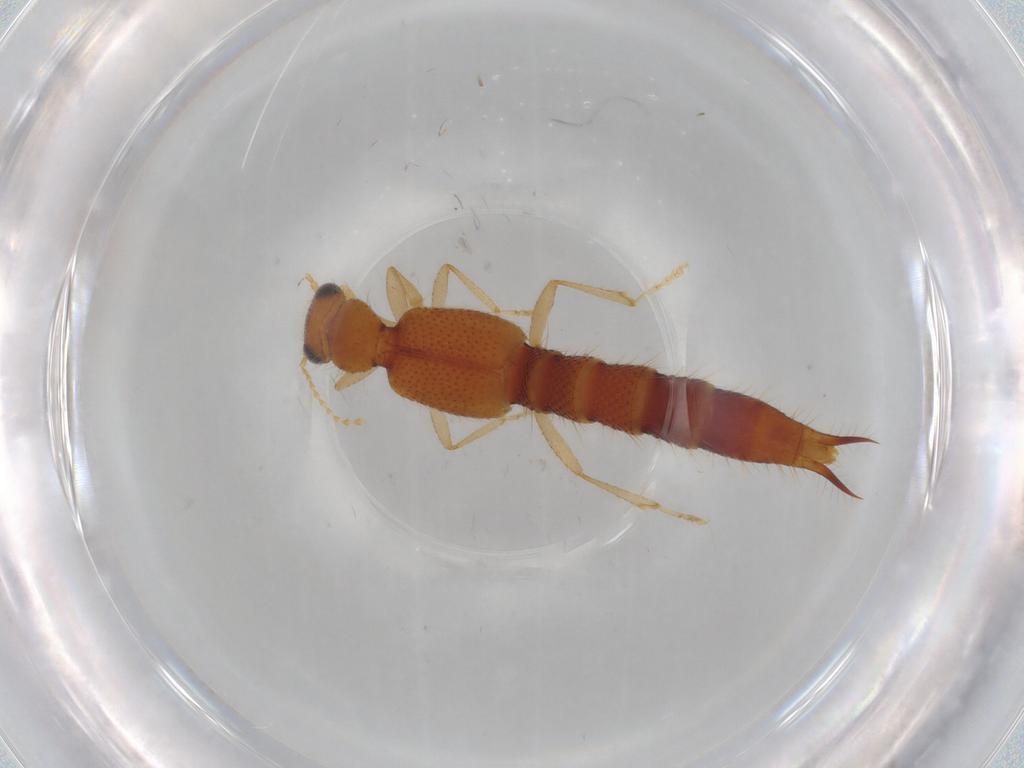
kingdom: Animalia
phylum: Arthropoda
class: Insecta
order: Coleoptera
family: Staphylinidae
